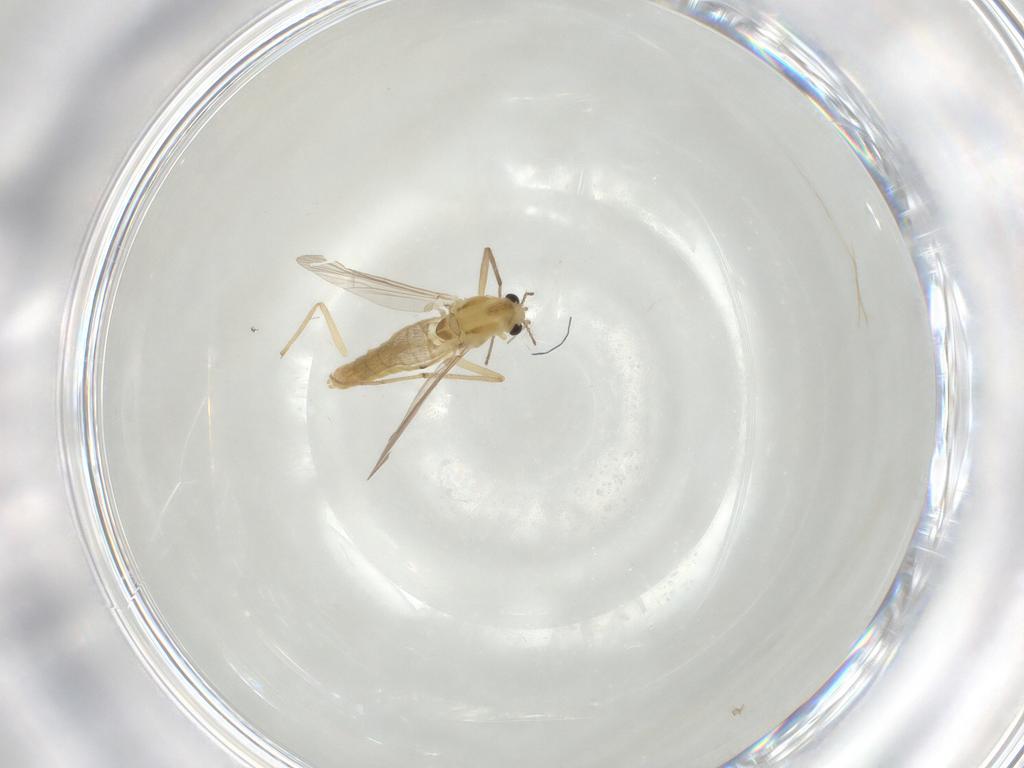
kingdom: Animalia
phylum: Arthropoda
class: Insecta
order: Diptera
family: Chironomidae
